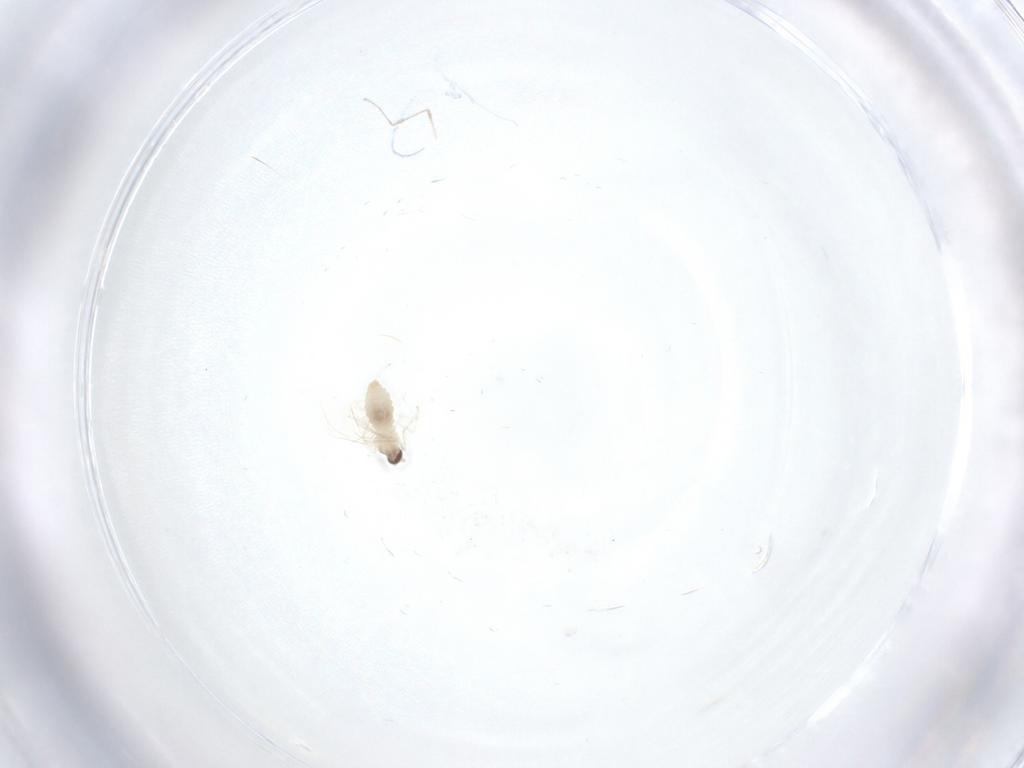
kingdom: Animalia
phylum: Arthropoda
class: Insecta
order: Diptera
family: Cecidomyiidae
